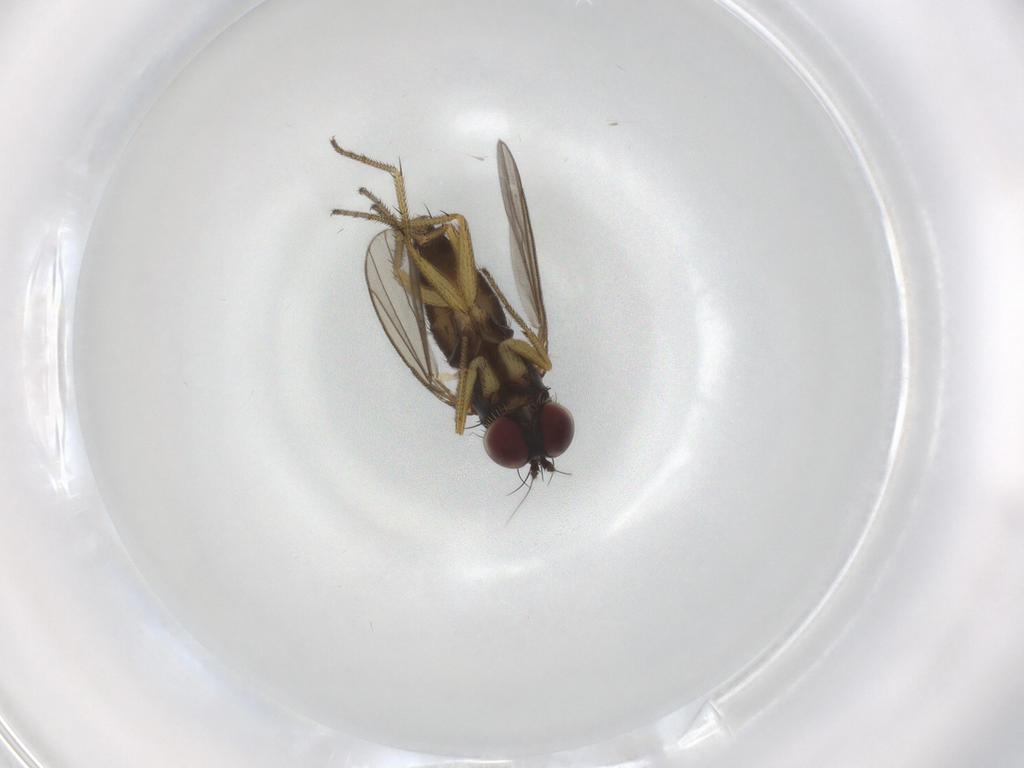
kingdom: Animalia
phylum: Arthropoda
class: Insecta
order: Diptera
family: Dolichopodidae
